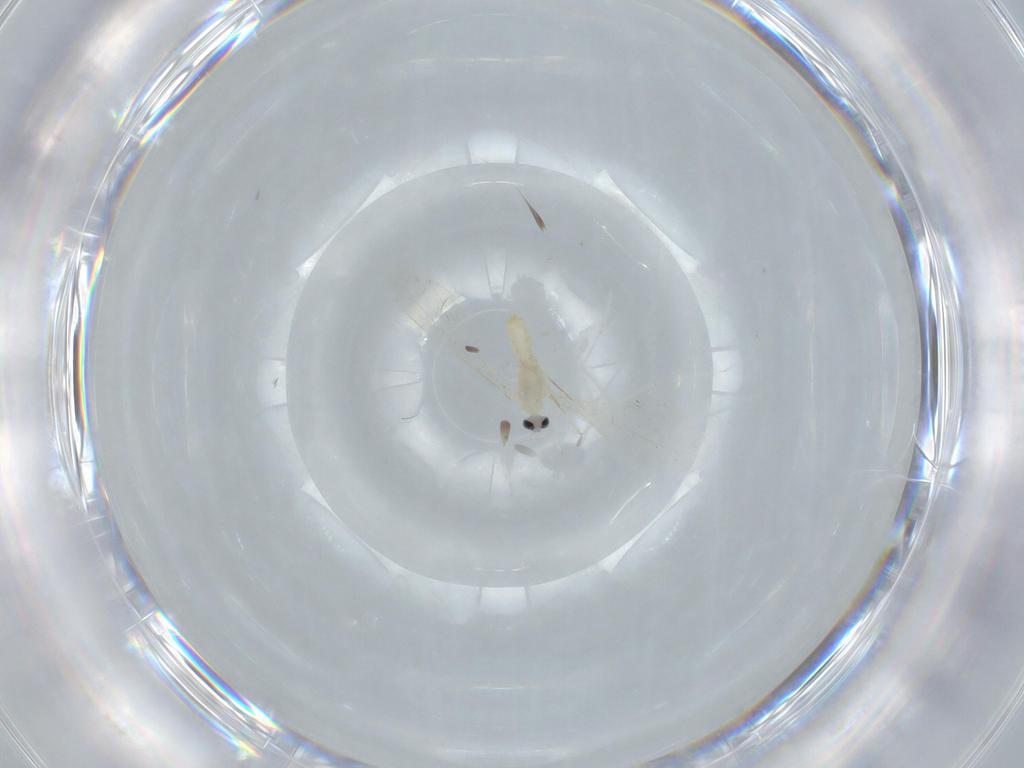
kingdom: Animalia
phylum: Arthropoda
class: Insecta
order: Diptera
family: Cecidomyiidae
